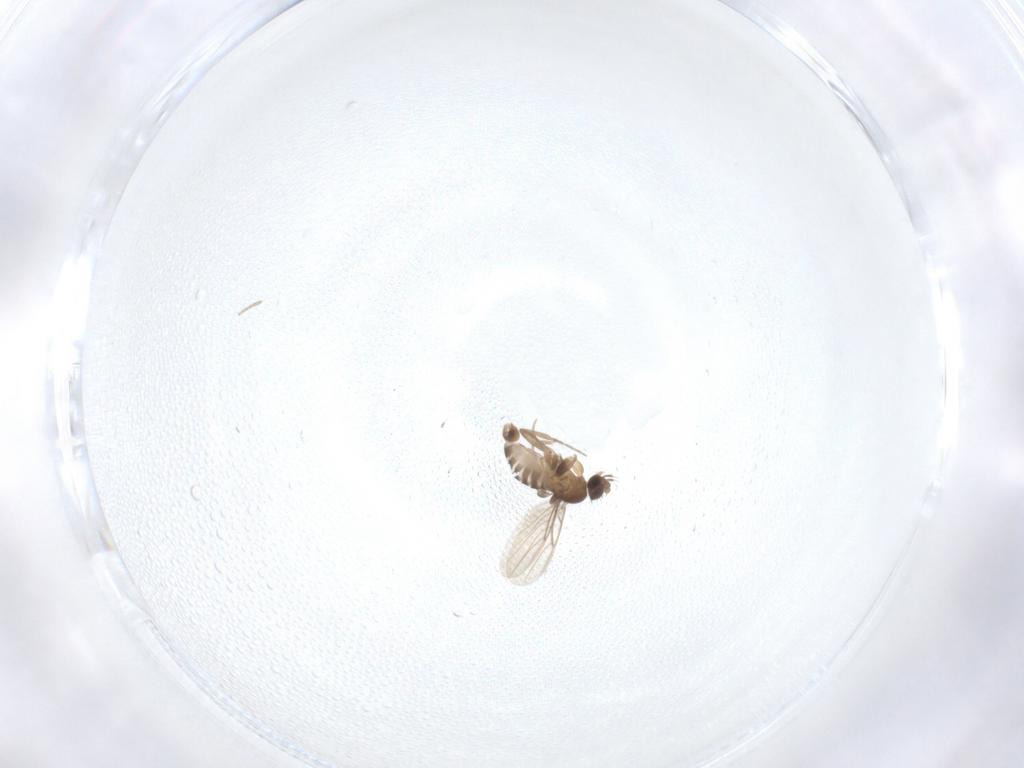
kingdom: Animalia
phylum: Arthropoda
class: Insecta
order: Diptera
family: Phoridae
